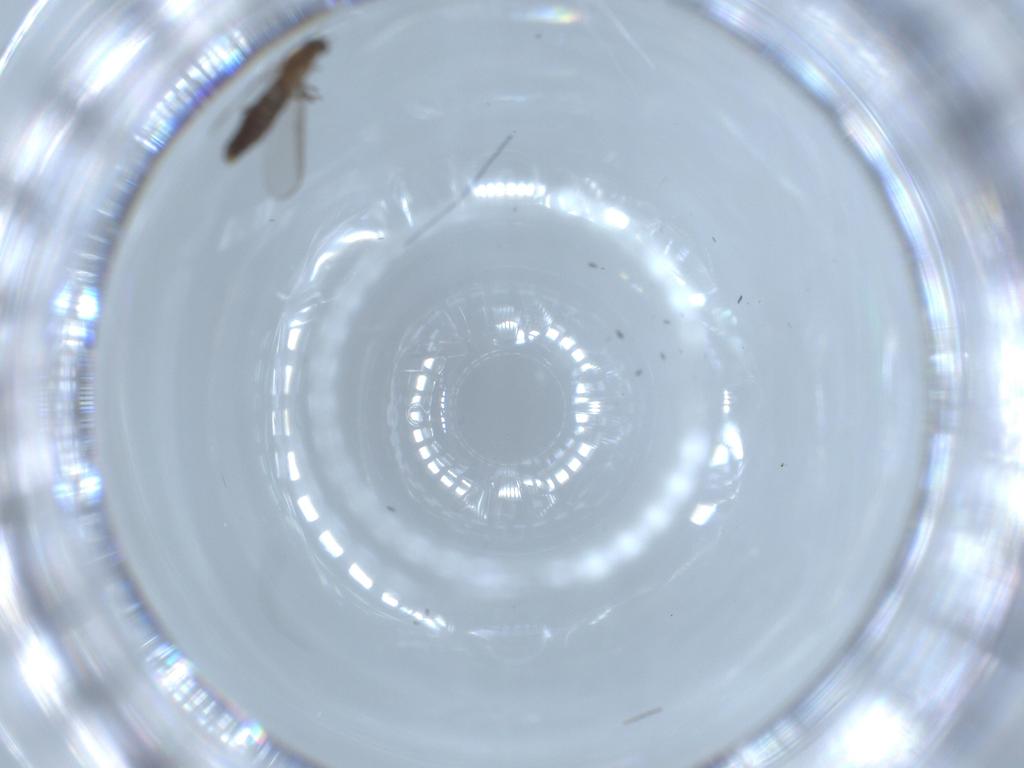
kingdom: Animalia
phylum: Arthropoda
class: Insecta
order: Diptera
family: Chironomidae
